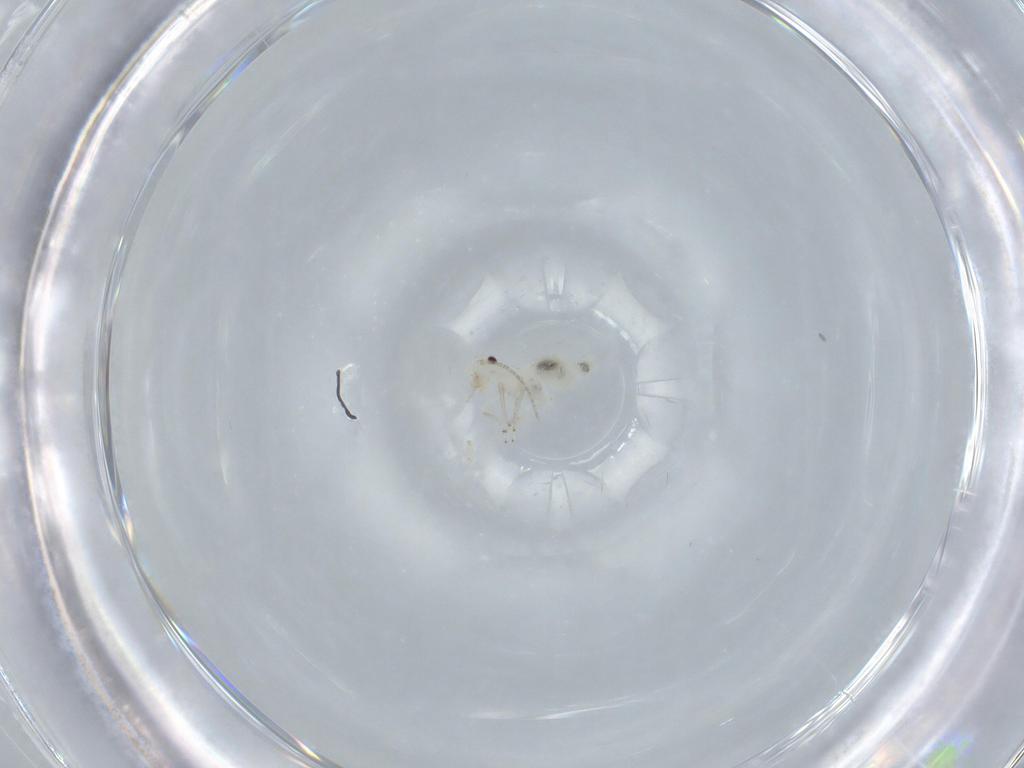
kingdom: Animalia
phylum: Arthropoda
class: Insecta
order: Psocodea
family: Caeciliusidae
